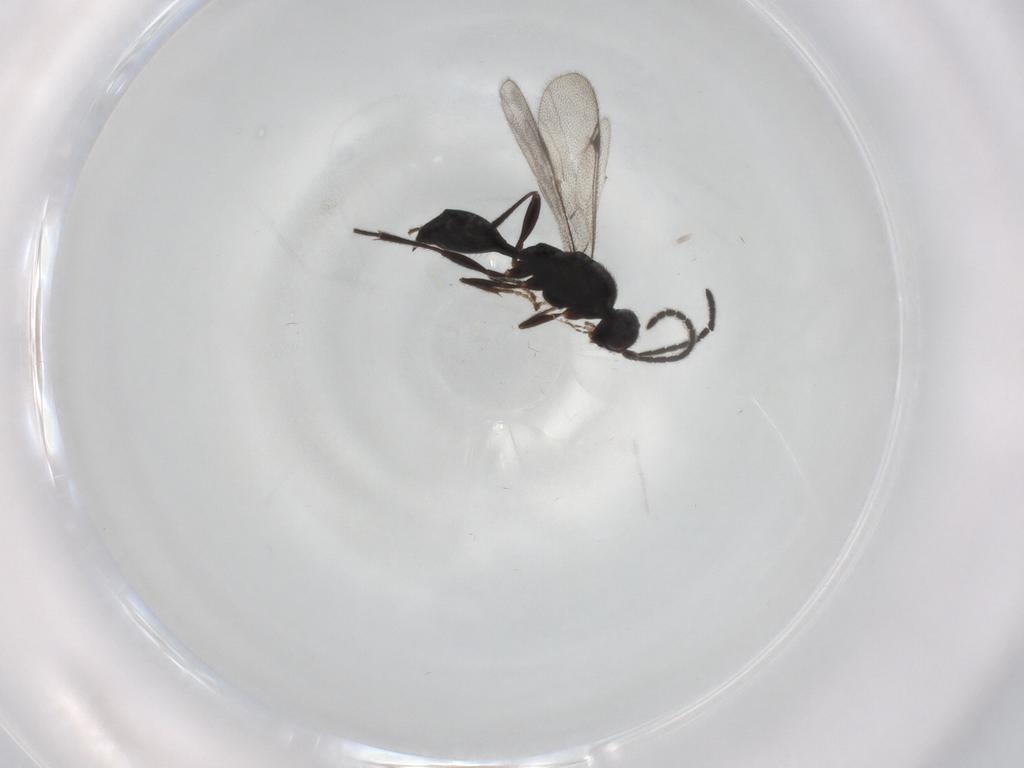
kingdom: Animalia
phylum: Arthropoda
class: Insecta
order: Hymenoptera
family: Proctotrupidae
